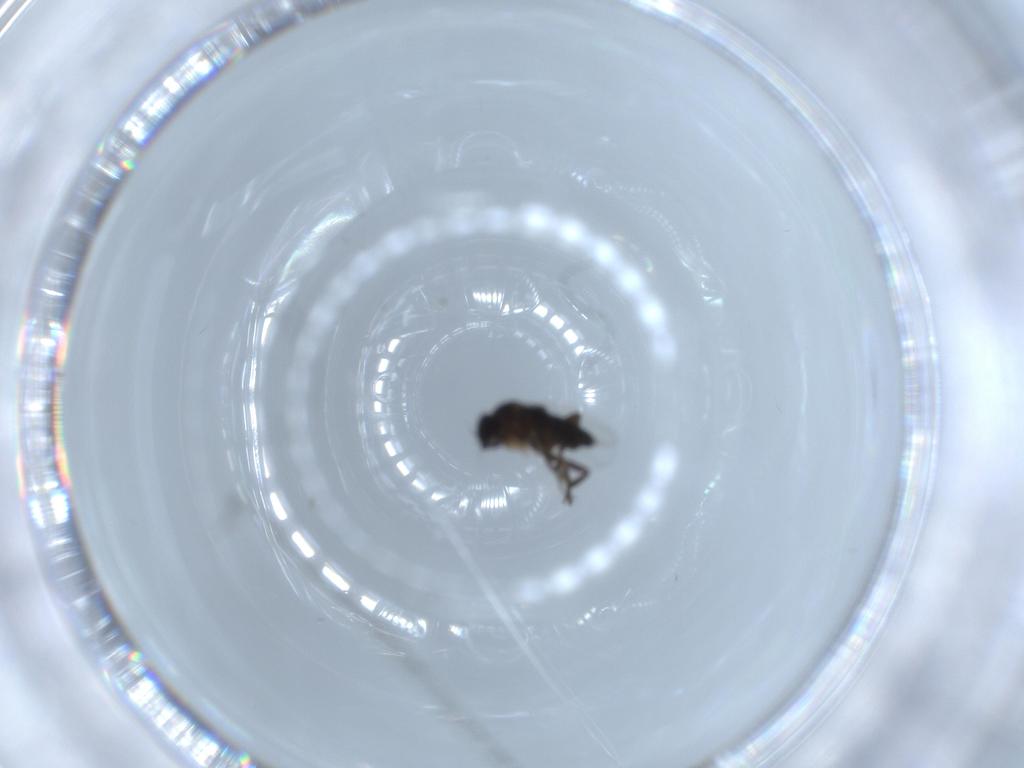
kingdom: Animalia
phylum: Arthropoda
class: Insecta
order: Diptera
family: Phoridae
